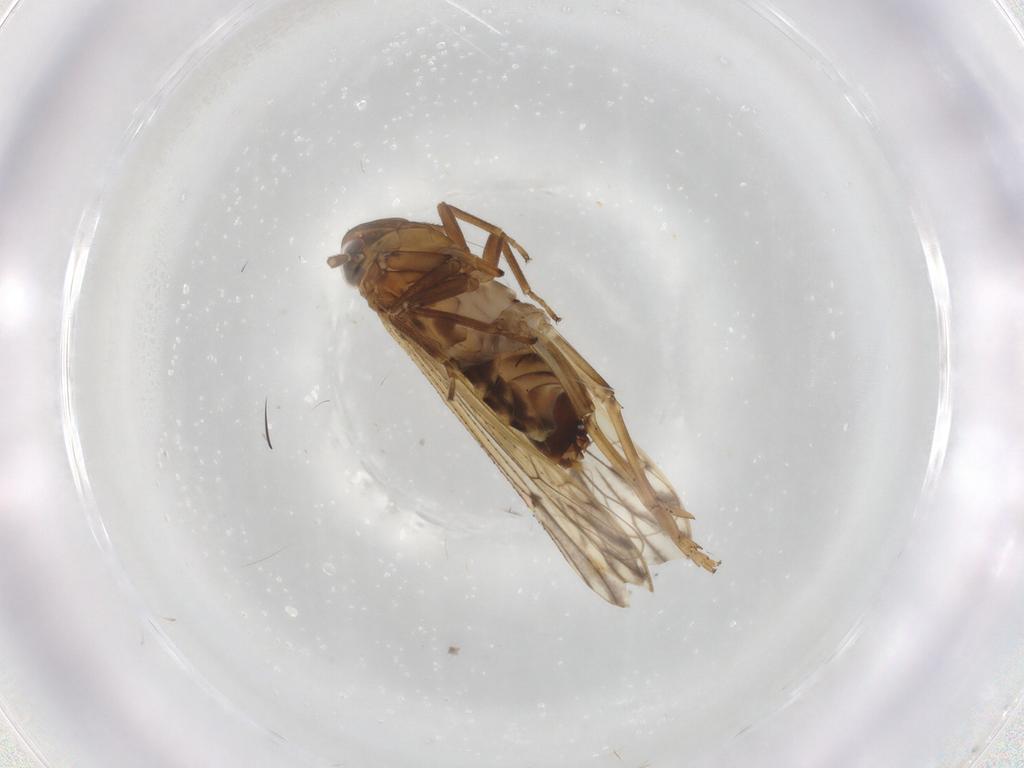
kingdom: Animalia
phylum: Arthropoda
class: Insecta
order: Hemiptera
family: Delphacidae
